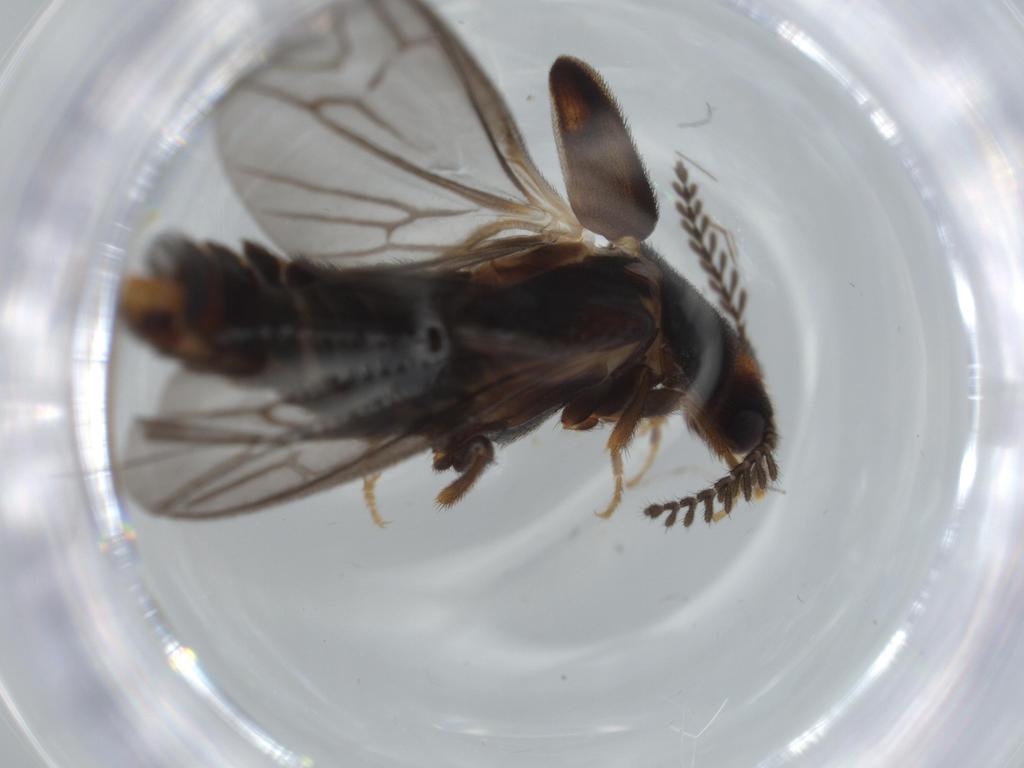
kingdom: Animalia
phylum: Arthropoda
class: Insecta
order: Coleoptera
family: Phengodidae
